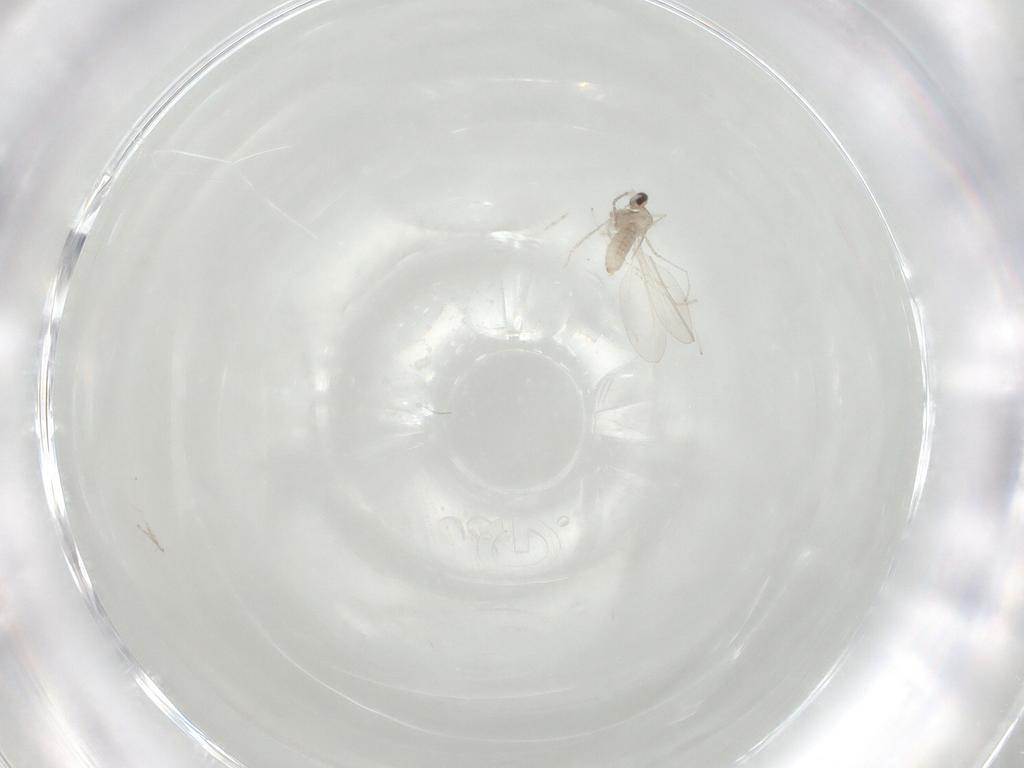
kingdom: Animalia
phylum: Arthropoda
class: Insecta
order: Diptera
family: Cecidomyiidae
